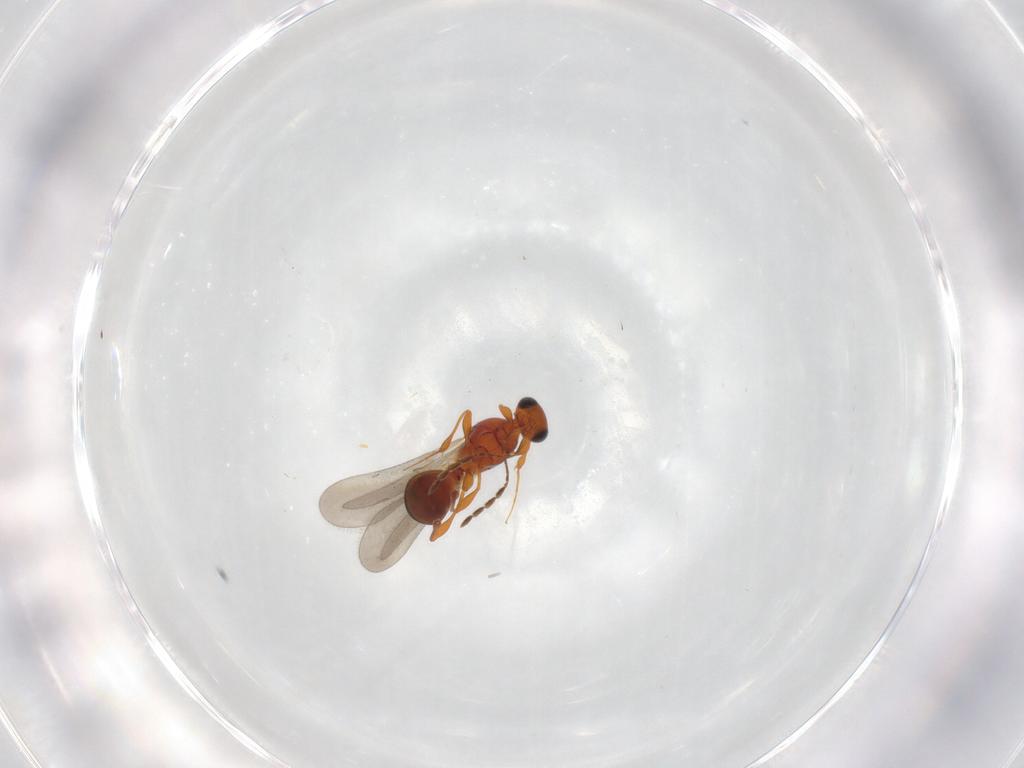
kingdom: Animalia
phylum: Arthropoda
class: Insecta
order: Hymenoptera
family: Platygastridae
